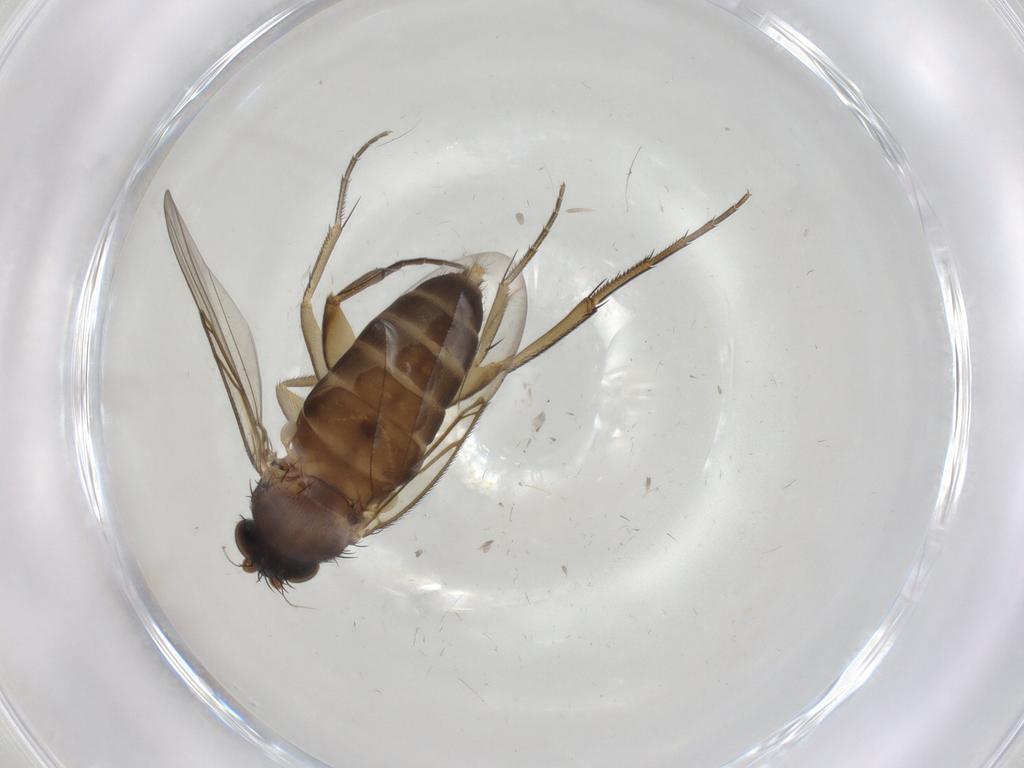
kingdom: Animalia
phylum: Arthropoda
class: Insecta
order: Diptera
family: Phoridae
